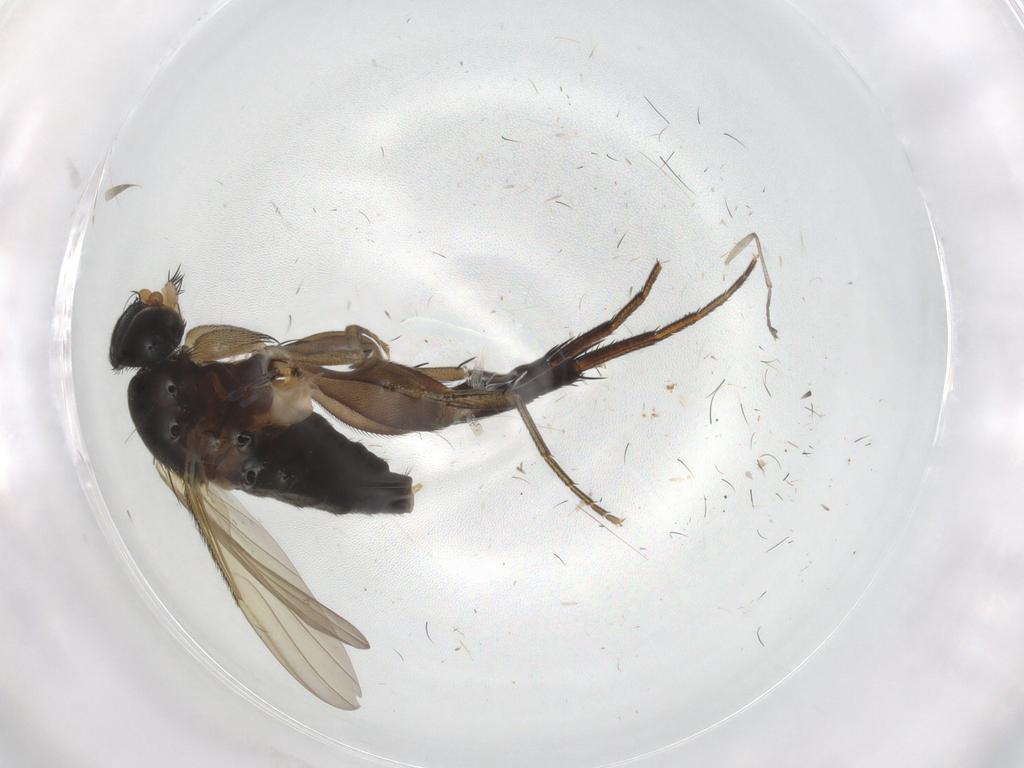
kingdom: Animalia
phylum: Arthropoda
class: Insecta
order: Diptera
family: Phoridae
